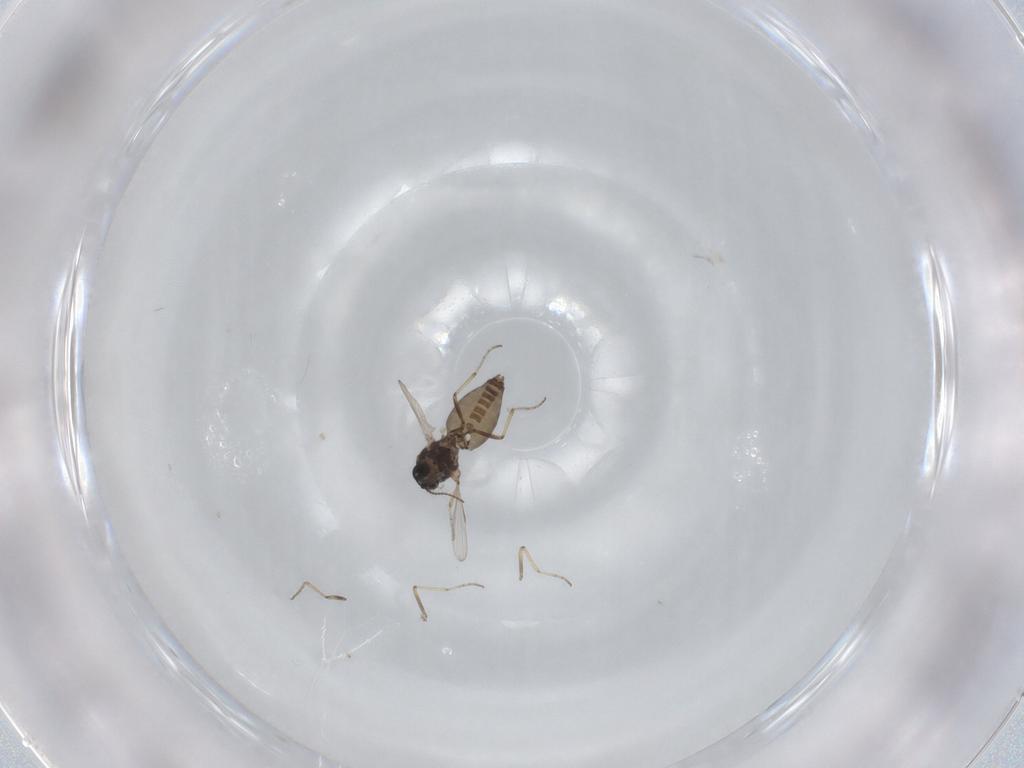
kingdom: Animalia
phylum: Arthropoda
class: Insecta
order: Diptera
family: Ceratopogonidae
